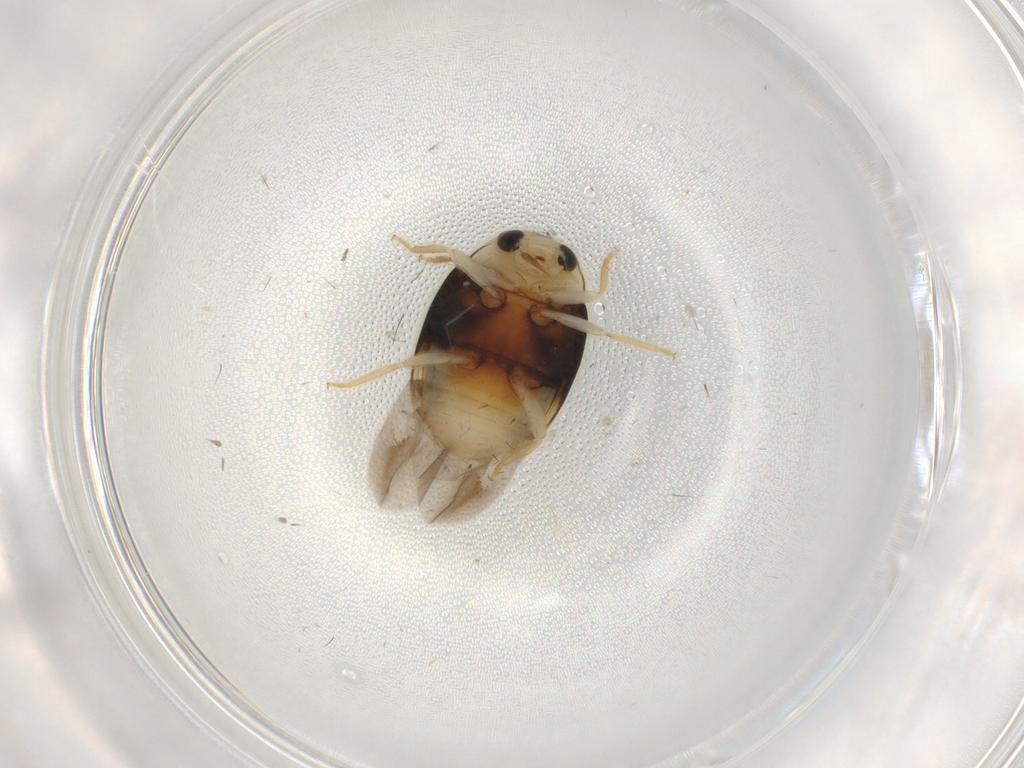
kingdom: Animalia
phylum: Arthropoda
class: Insecta
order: Coleoptera
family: Coccinellidae
